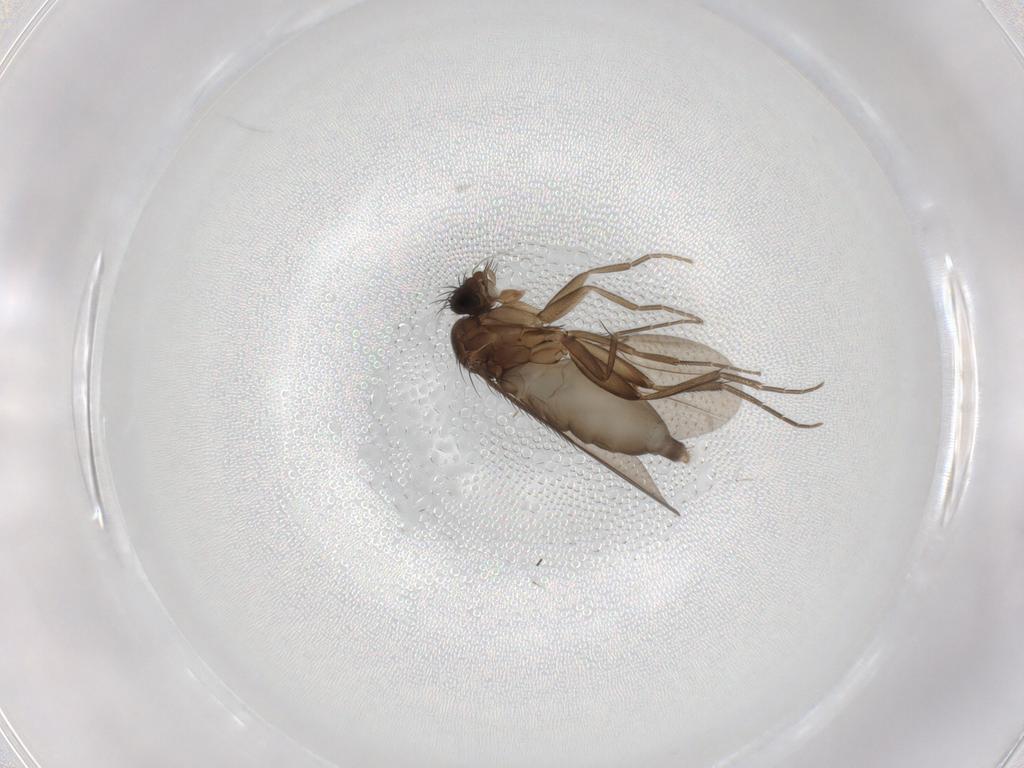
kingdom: Animalia
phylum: Arthropoda
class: Insecta
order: Diptera
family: Phoridae
